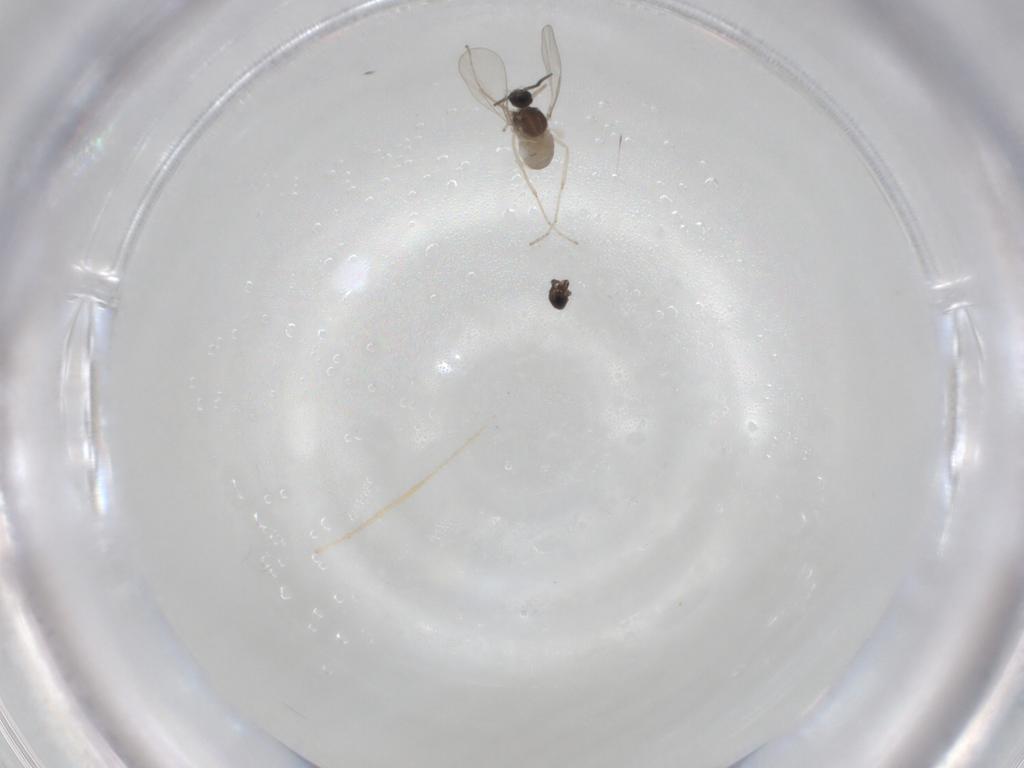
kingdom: Animalia
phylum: Arthropoda
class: Insecta
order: Diptera
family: Cecidomyiidae
